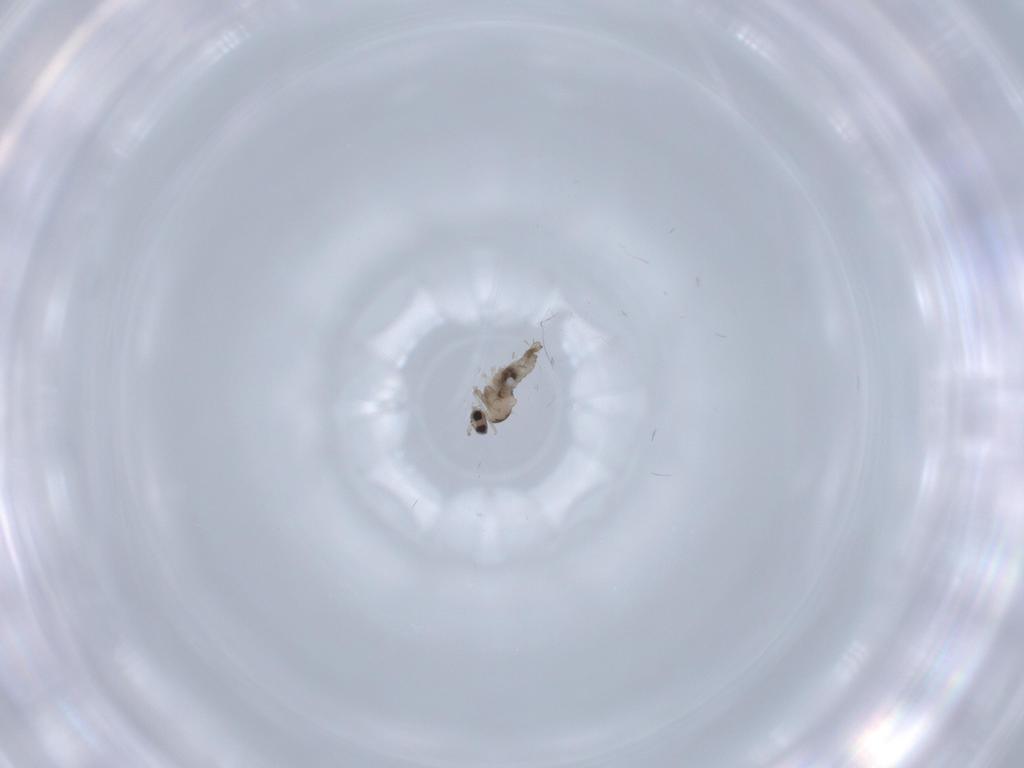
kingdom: Animalia
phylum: Arthropoda
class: Insecta
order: Diptera
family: Cecidomyiidae
